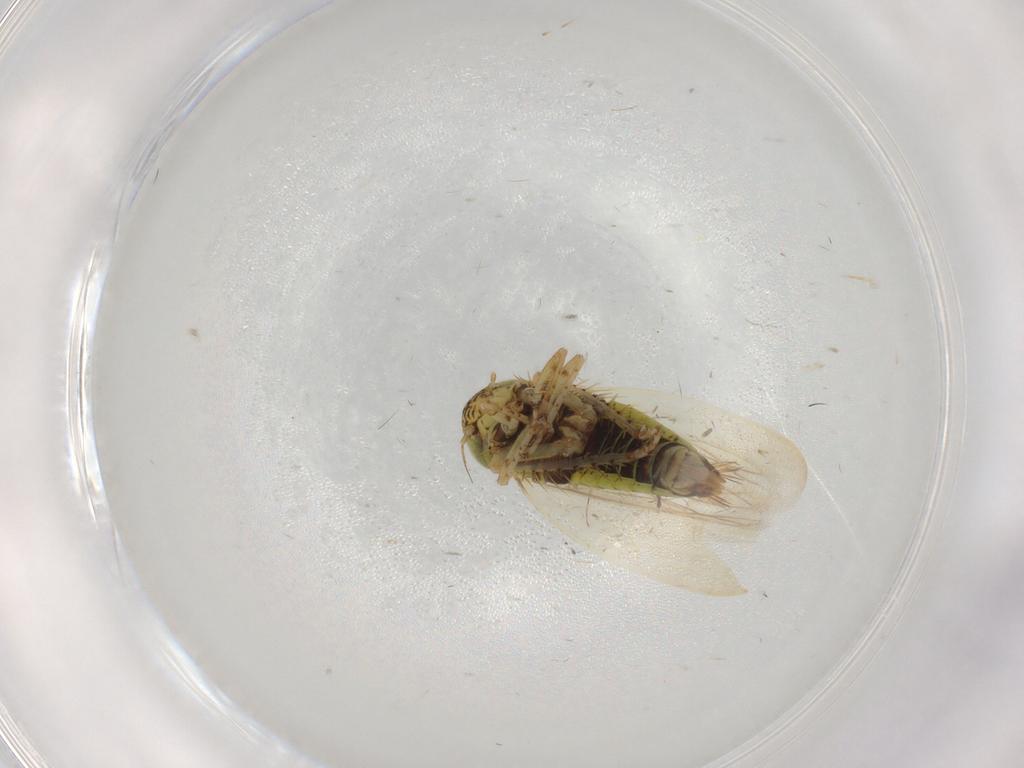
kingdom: Animalia
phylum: Arthropoda
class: Insecta
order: Hemiptera
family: Cicadellidae
